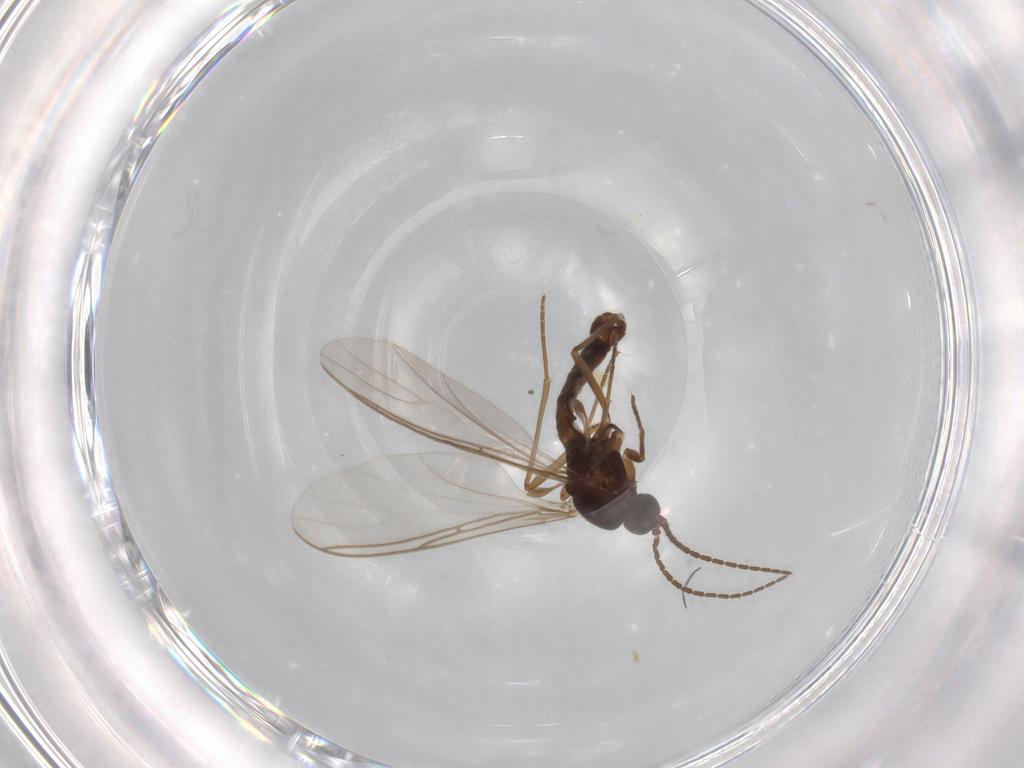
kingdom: Animalia
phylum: Arthropoda
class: Insecta
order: Diptera
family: Sciaridae
